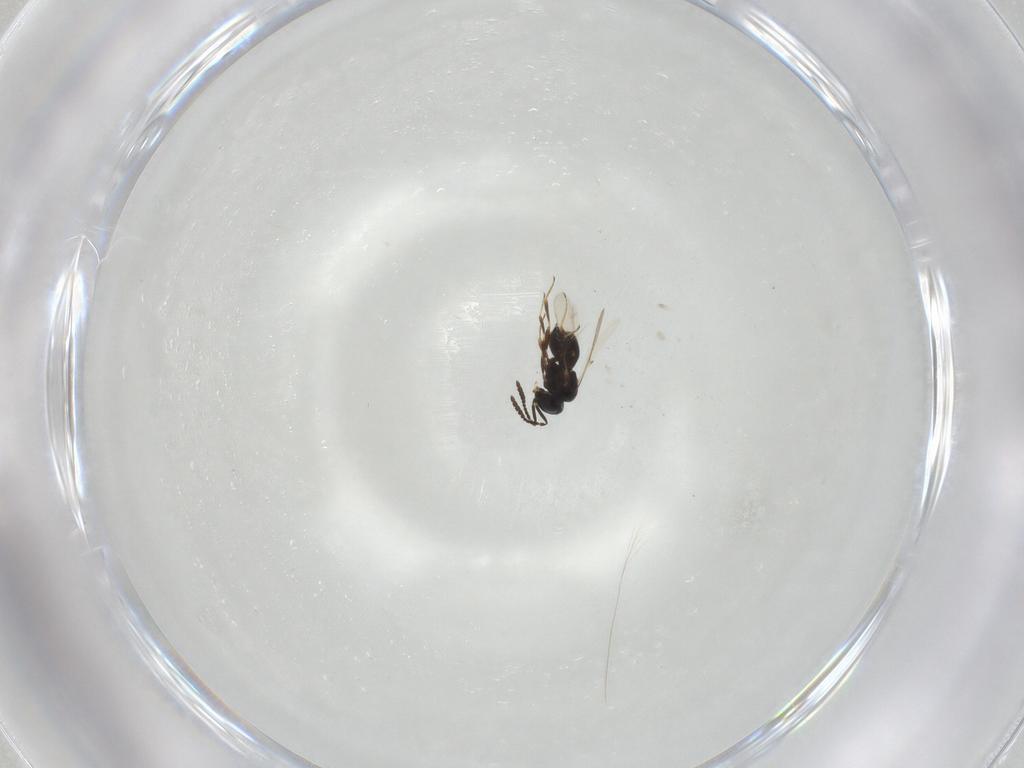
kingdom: Animalia
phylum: Arthropoda
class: Insecta
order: Hymenoptera
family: Scelionidae
